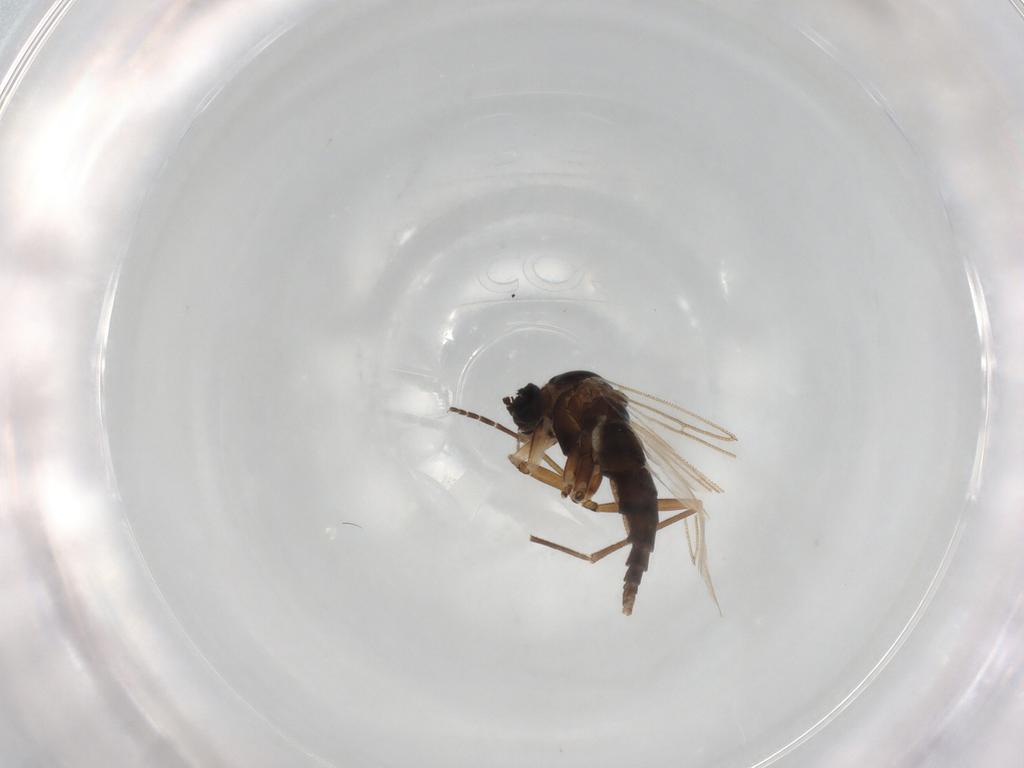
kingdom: Animalia
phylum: Arthropoda
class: Insecta
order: Diptera
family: Sciaridae
